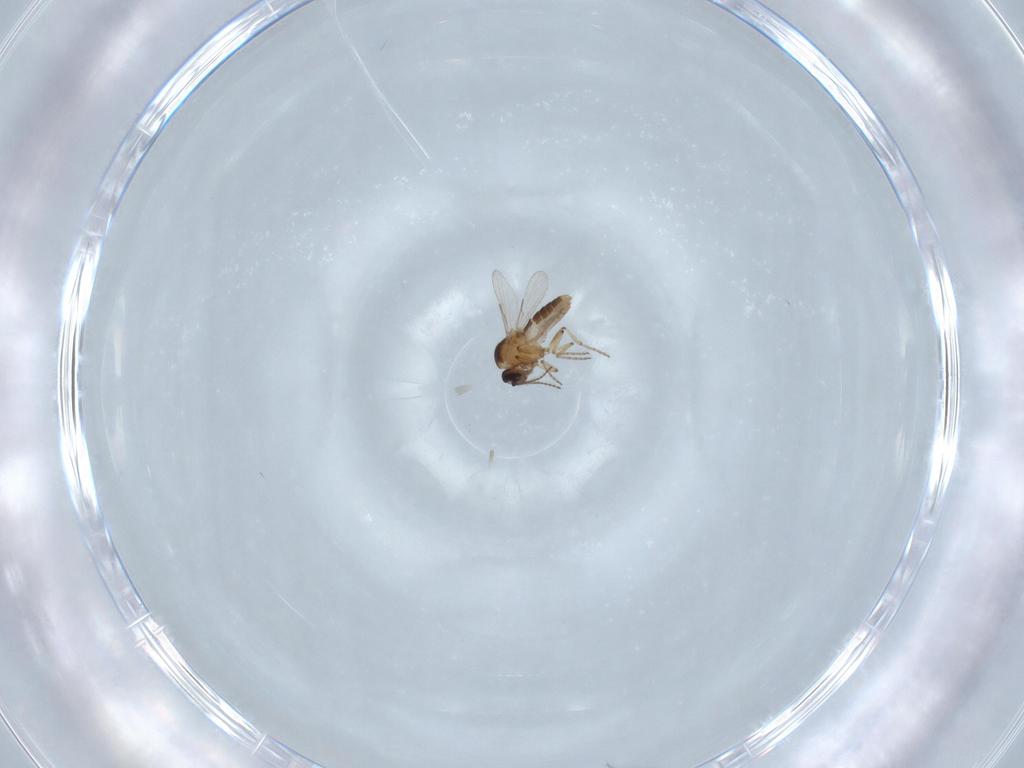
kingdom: Animalia
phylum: Arthropoda
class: Insecta
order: Diptera
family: Ceratopogonidae
